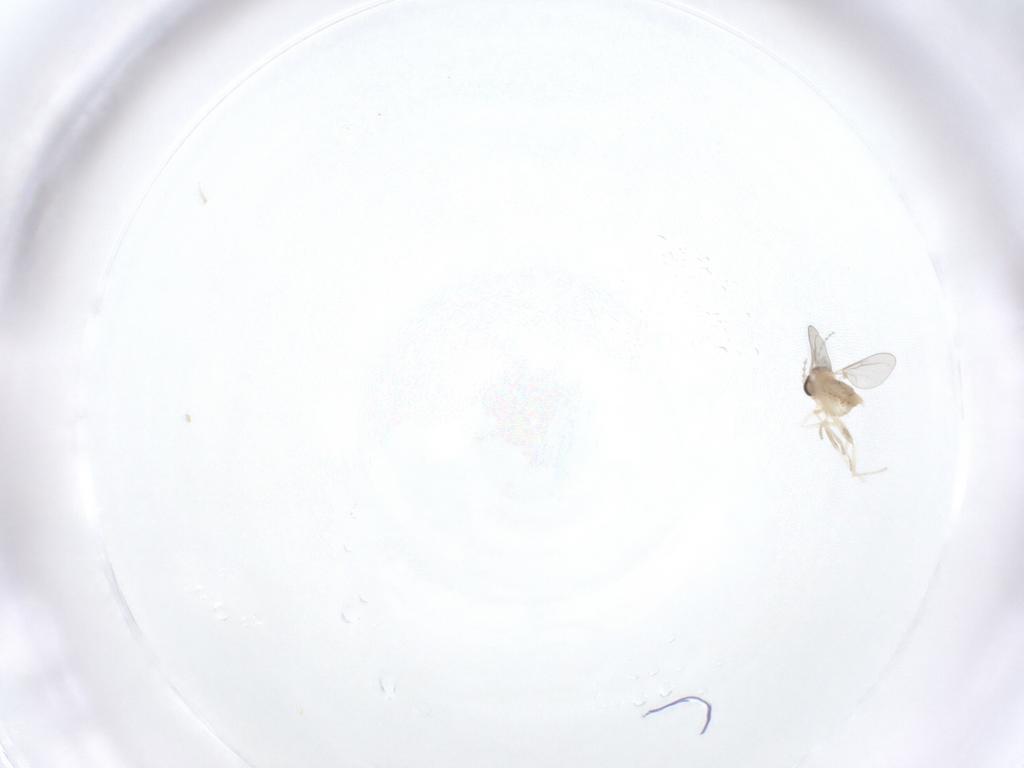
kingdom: Animalia
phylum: Arthropoda
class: Insecta
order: Diptera
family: Cecidomyiidae
